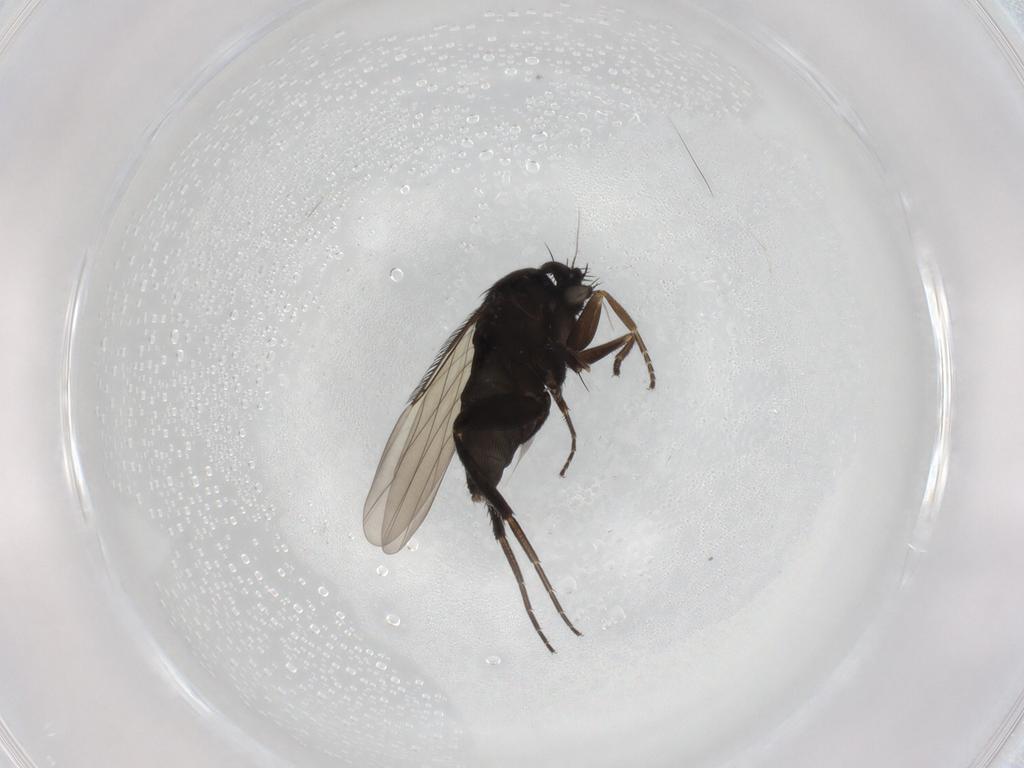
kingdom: Animalia
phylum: Arthropoda
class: Insecta
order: Diptera
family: Phoridae
